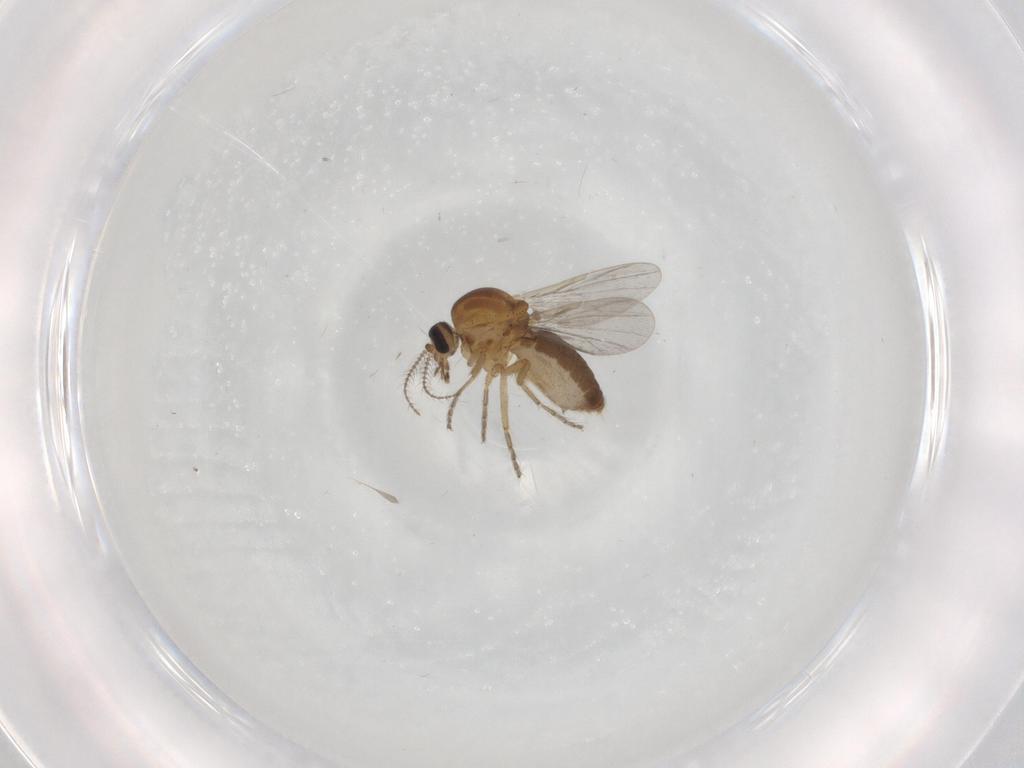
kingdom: Animalia
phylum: Arthropoda
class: Insecta
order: Diptera
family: Ceratopogonidae
